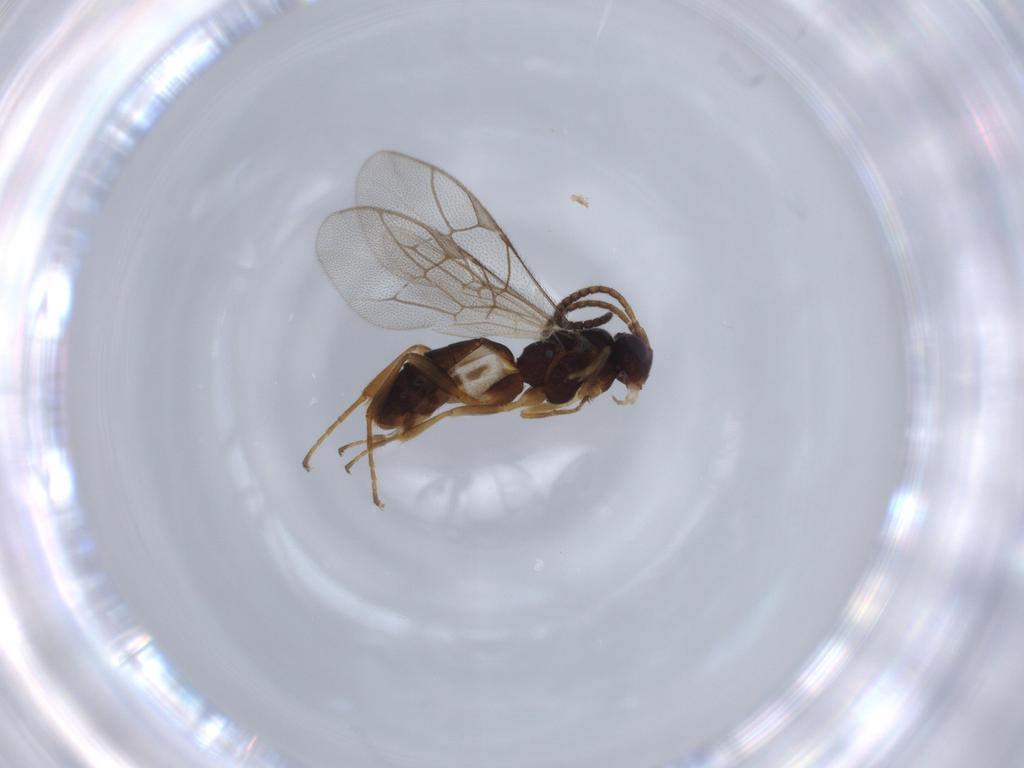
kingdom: Animalia
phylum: Arthropoda
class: Insecta
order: Hymenoptera
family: Ichneumonidae
